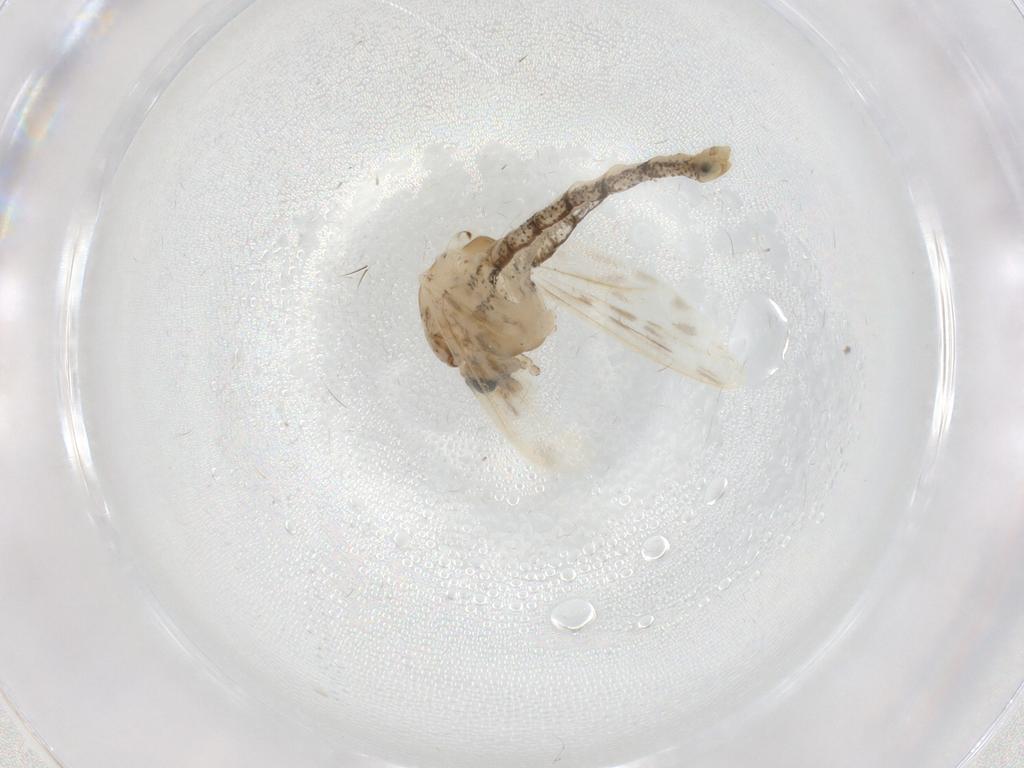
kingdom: Animalia
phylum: Arthropoda
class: Insecta
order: Diptera
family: Chaoboridae
